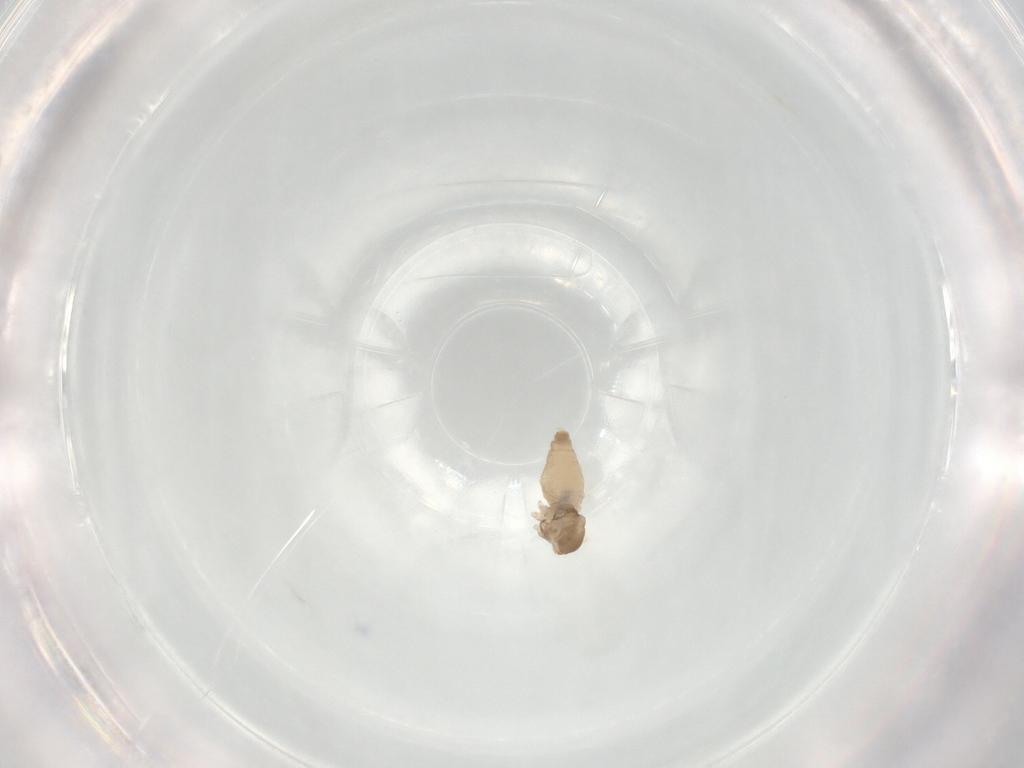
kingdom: Animalia
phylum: Arthropoda
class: Insecta
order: Diptera
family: Cecidomyiidae
